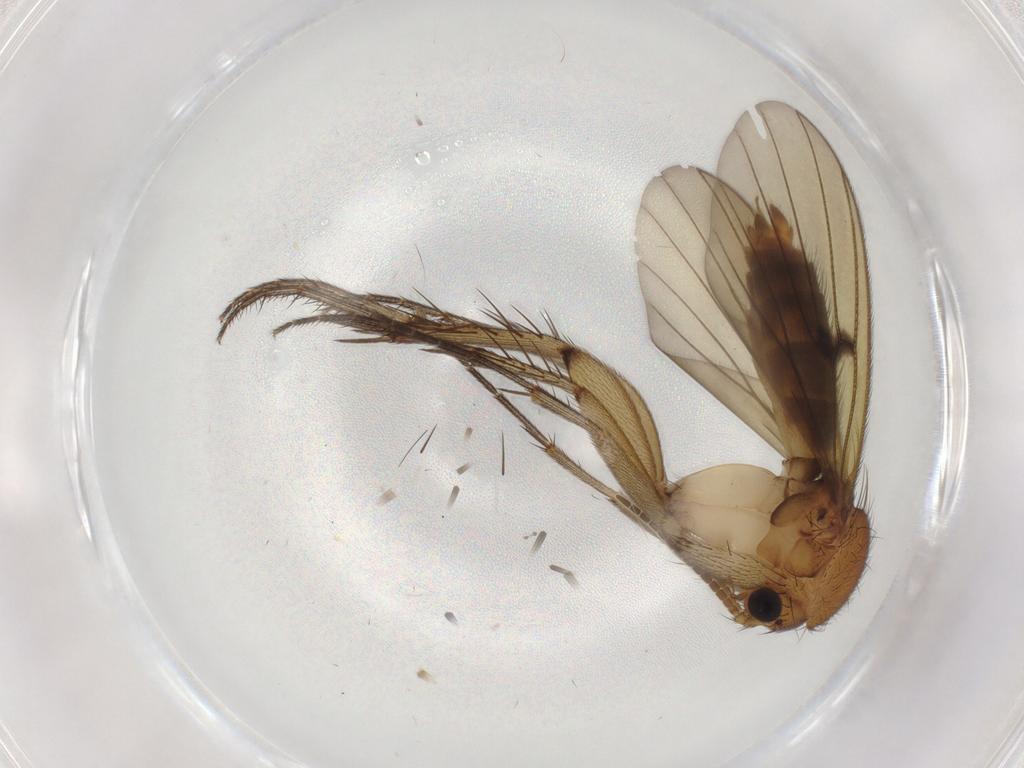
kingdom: Animalia
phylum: Arthropoda
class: Insecta
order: Diptera
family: Mycetophilidae
